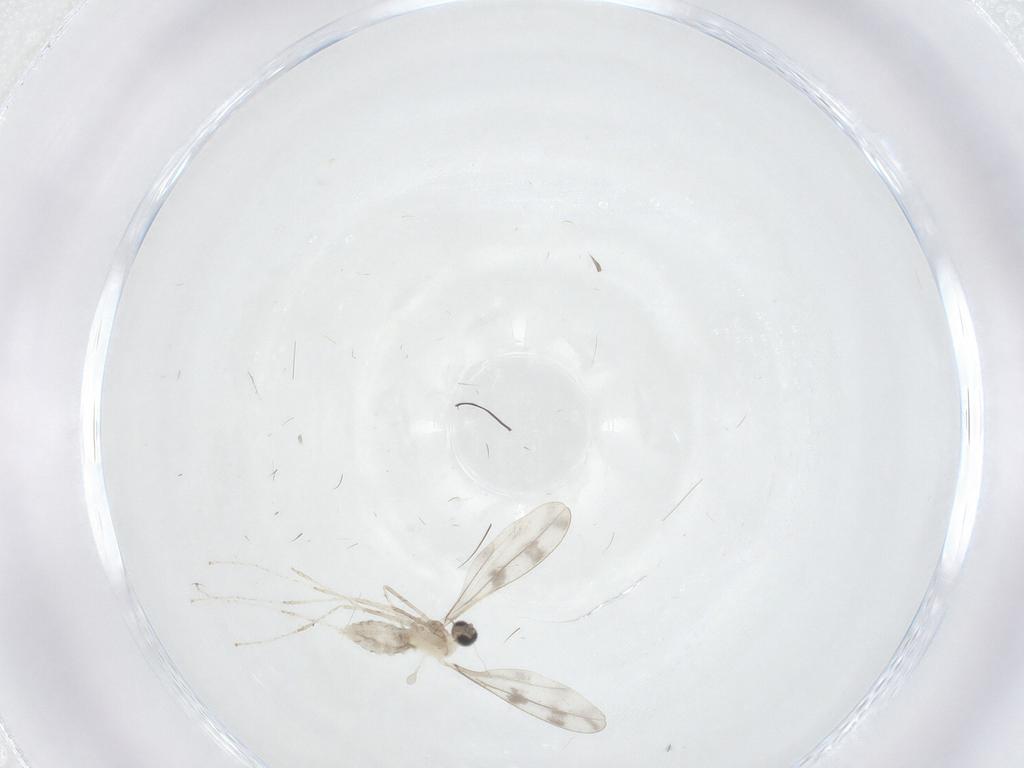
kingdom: Animalia
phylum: Arthropoda
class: Insecta
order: Diptera
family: Cecidomyiidae
